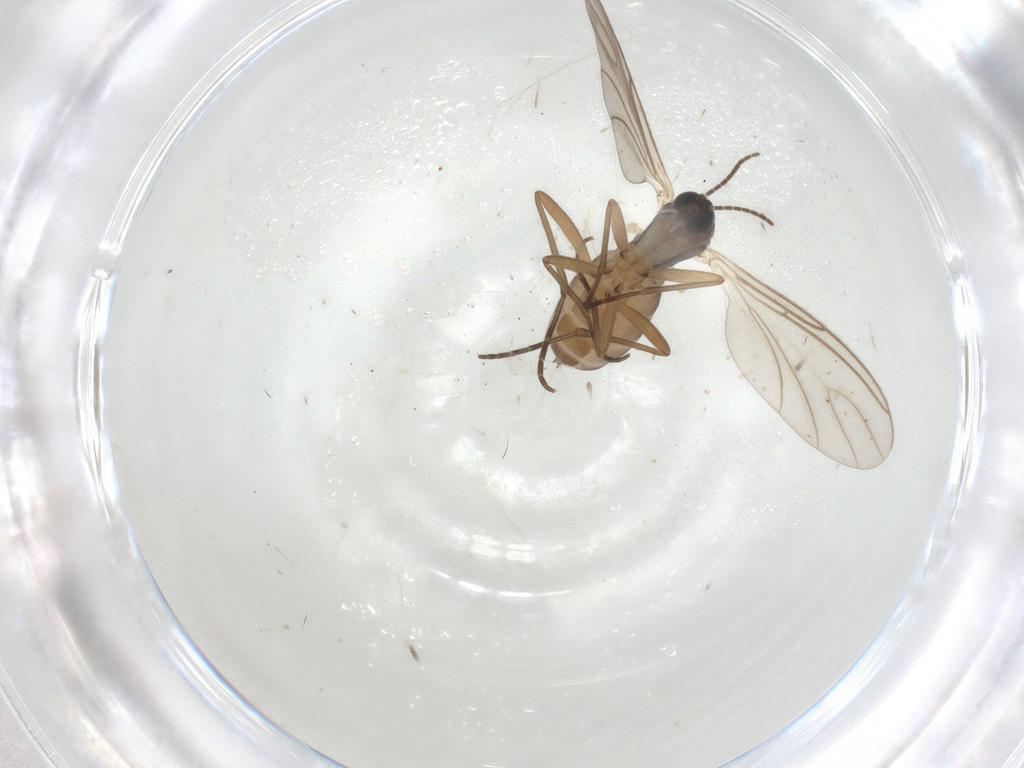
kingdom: Animalia
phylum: Arthropoda
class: Insecta
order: Diptera
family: Sciaridae
